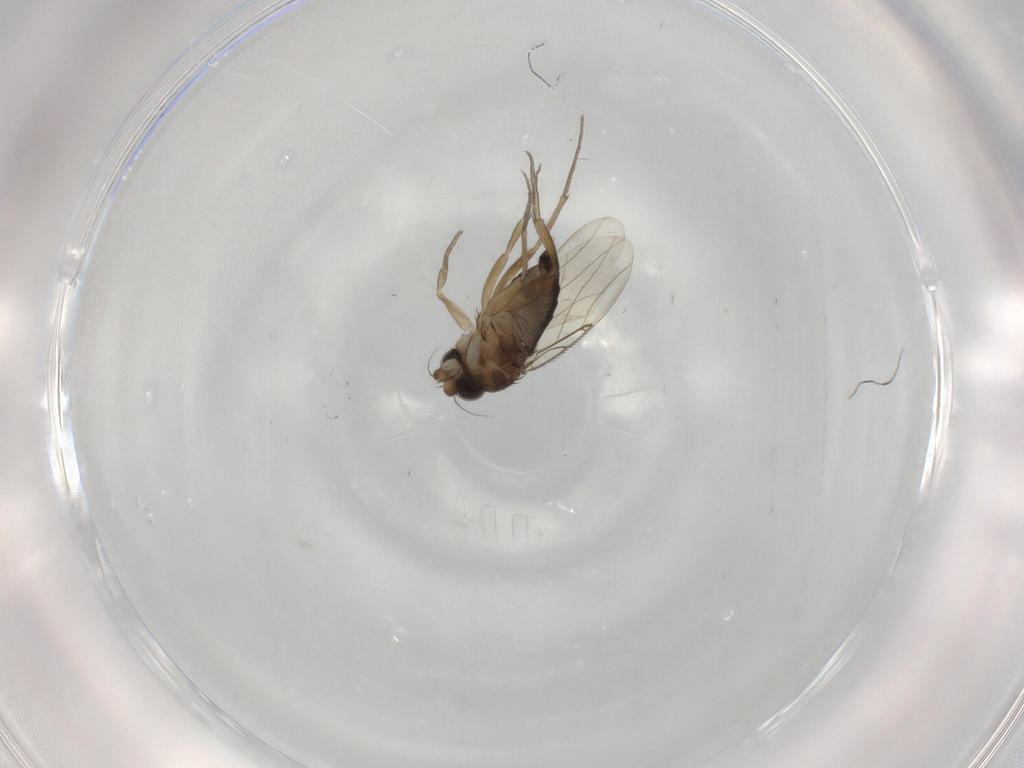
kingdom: Animalia
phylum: Arthropoda
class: Insecta
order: Diptera
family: Phoridae
